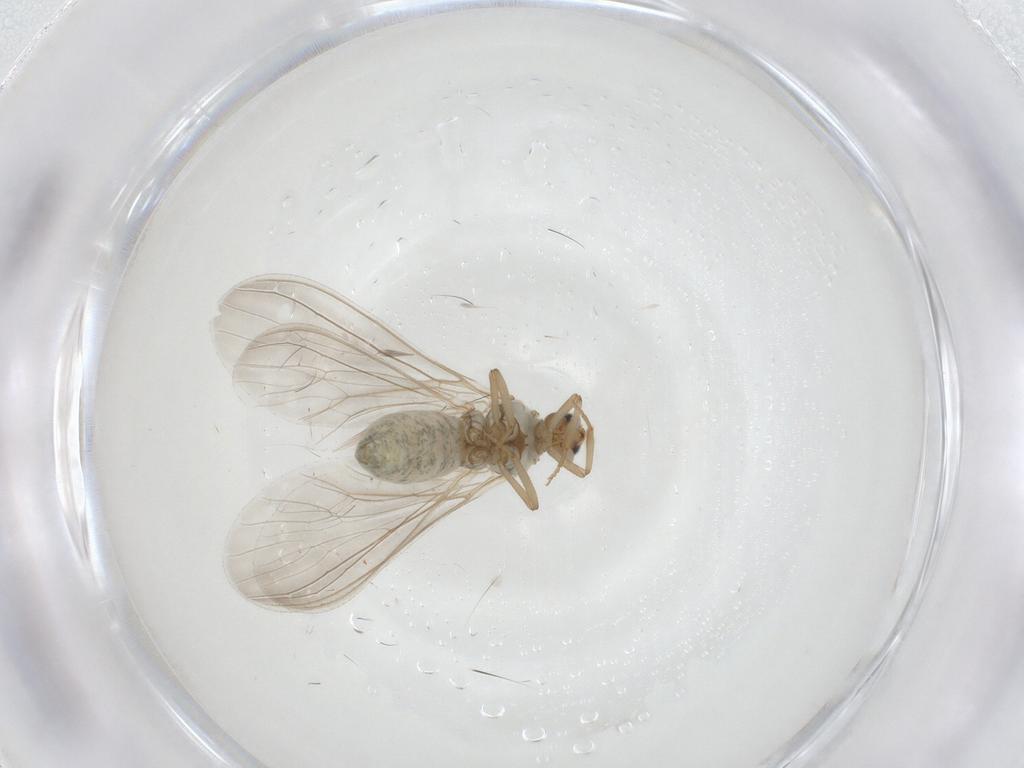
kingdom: Animalia
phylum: Arthropoda
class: Insecta
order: Neuroptera
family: Coniopterygidae
